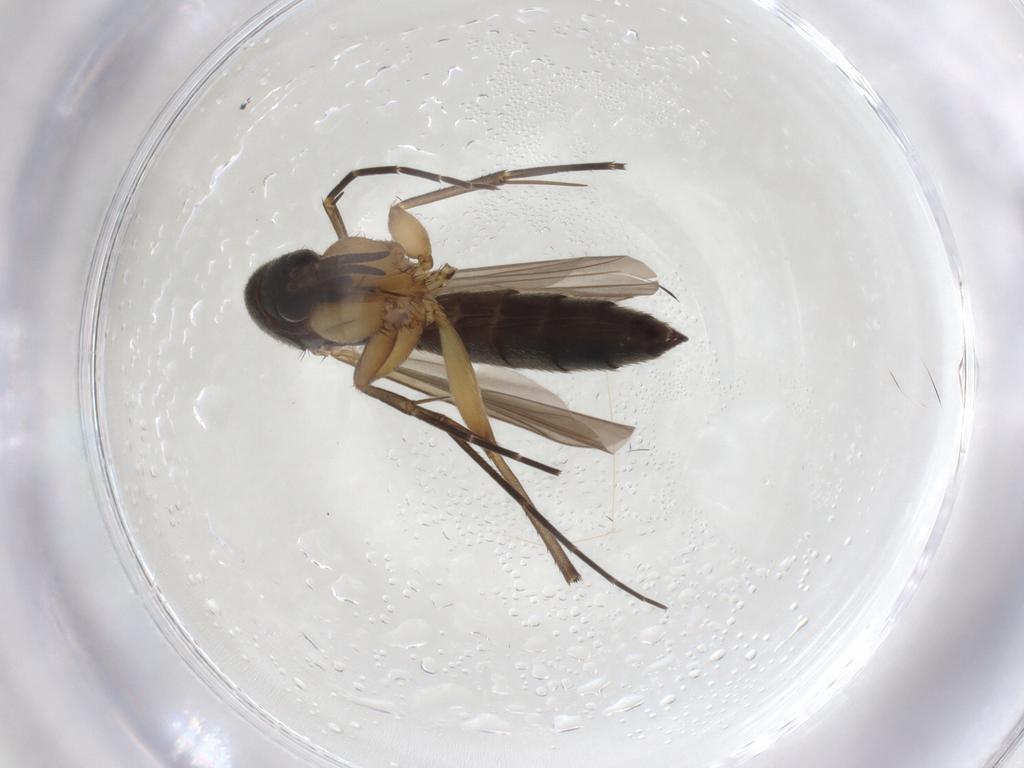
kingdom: Animalia
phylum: Arthropoda
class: Insecta
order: Diptera
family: Mycetophilidae
